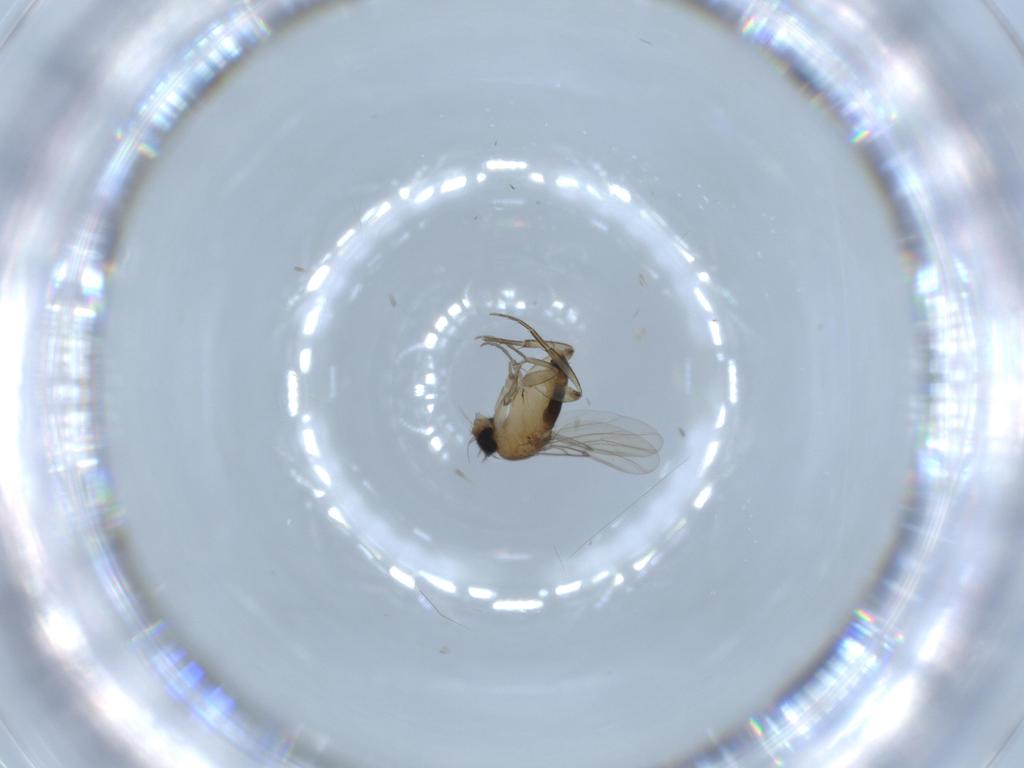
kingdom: Animalia
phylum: Arthropoda
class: Insecta
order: Diptera
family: Phoridae
